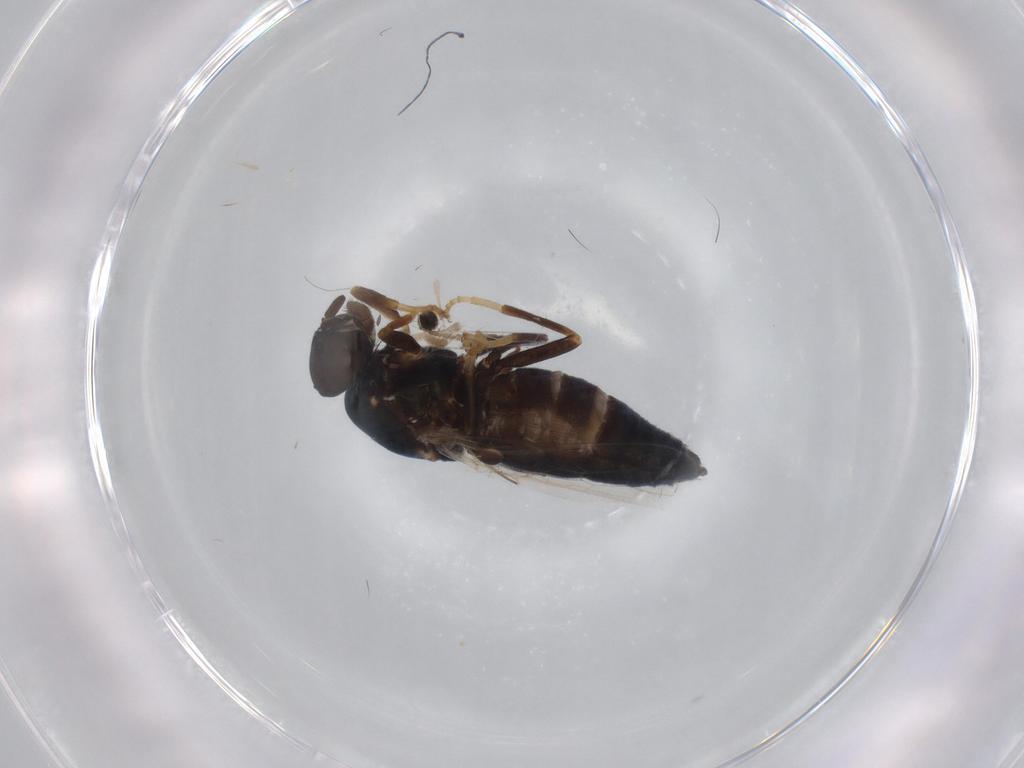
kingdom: Animalia
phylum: Arthropoda
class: Insecta
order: Diptera
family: Scenopinidae
